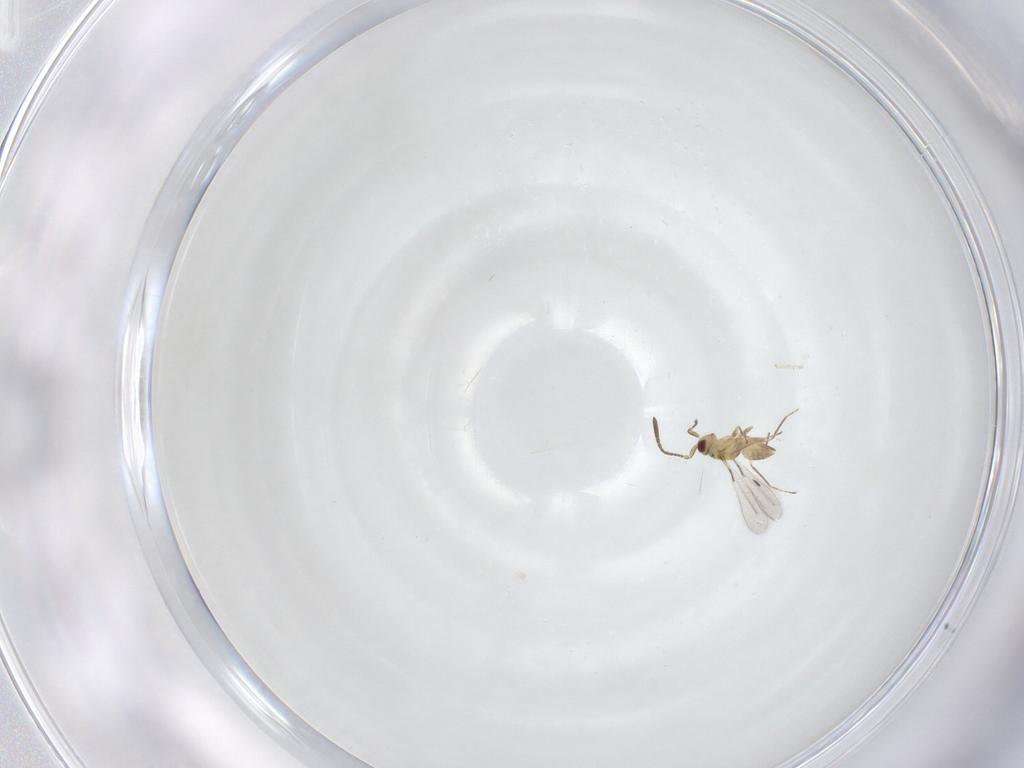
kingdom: Animalia
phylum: Arthropoda
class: Insecta
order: Hymenoptera
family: Mymaridae
